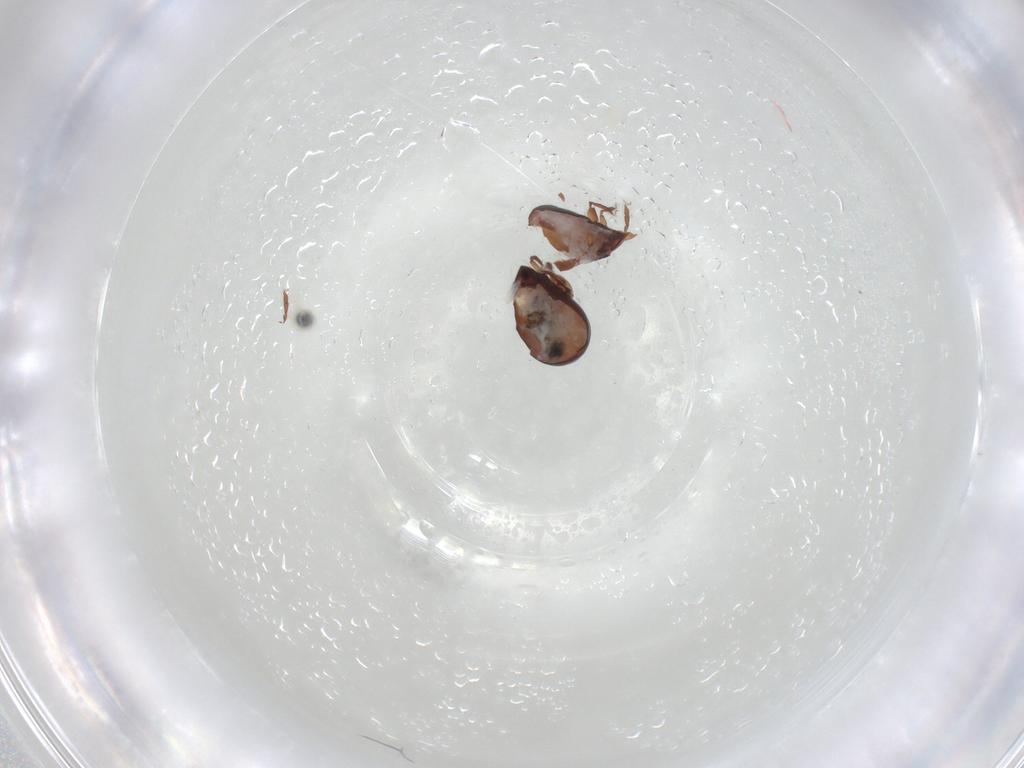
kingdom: Animalia
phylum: Arthropoda
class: Arachnida
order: Sarcoptiformes
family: Humerobatidae
